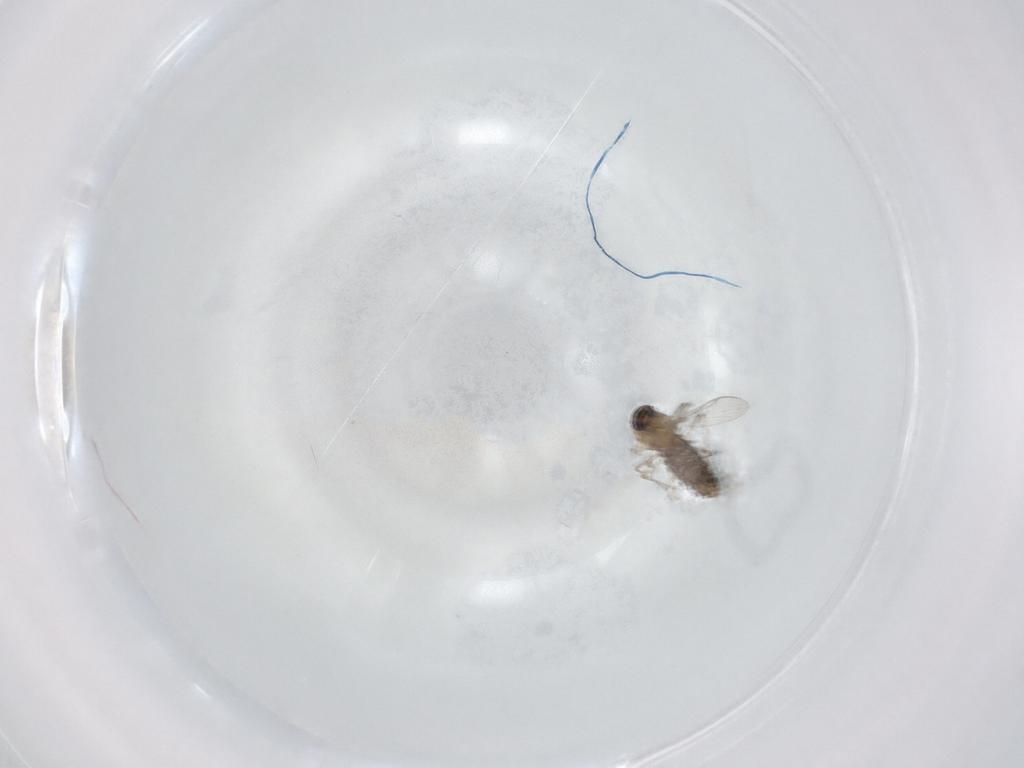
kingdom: Animalia
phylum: Arthropoda
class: Insecta
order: Diptera
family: Chironomidae
